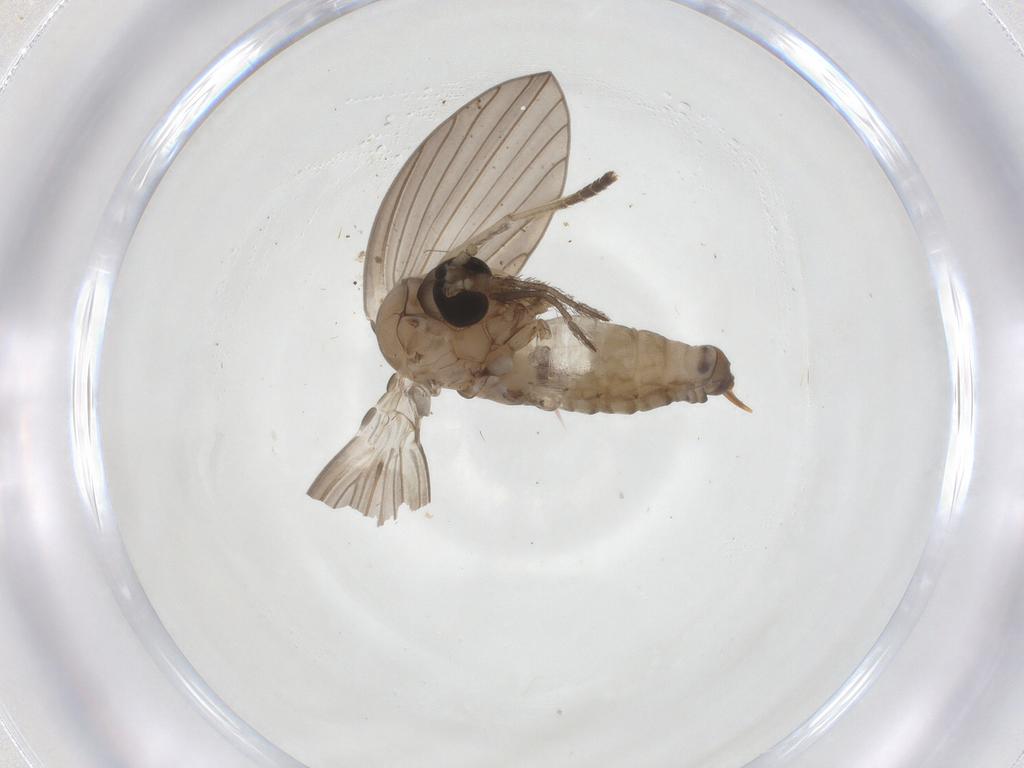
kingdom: Animalia
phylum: Arthropoda
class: Insecta
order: Diptera
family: Psychodidae
